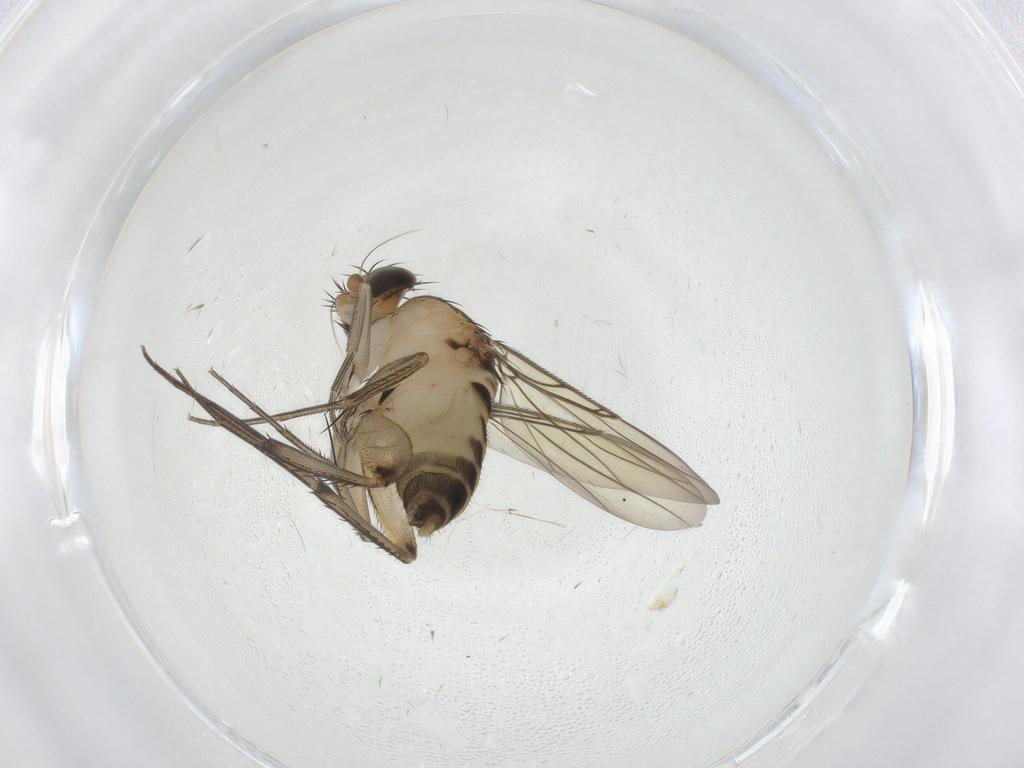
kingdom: Animalia
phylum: Arthropoda
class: Insecta
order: Diptera
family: Phoridae
